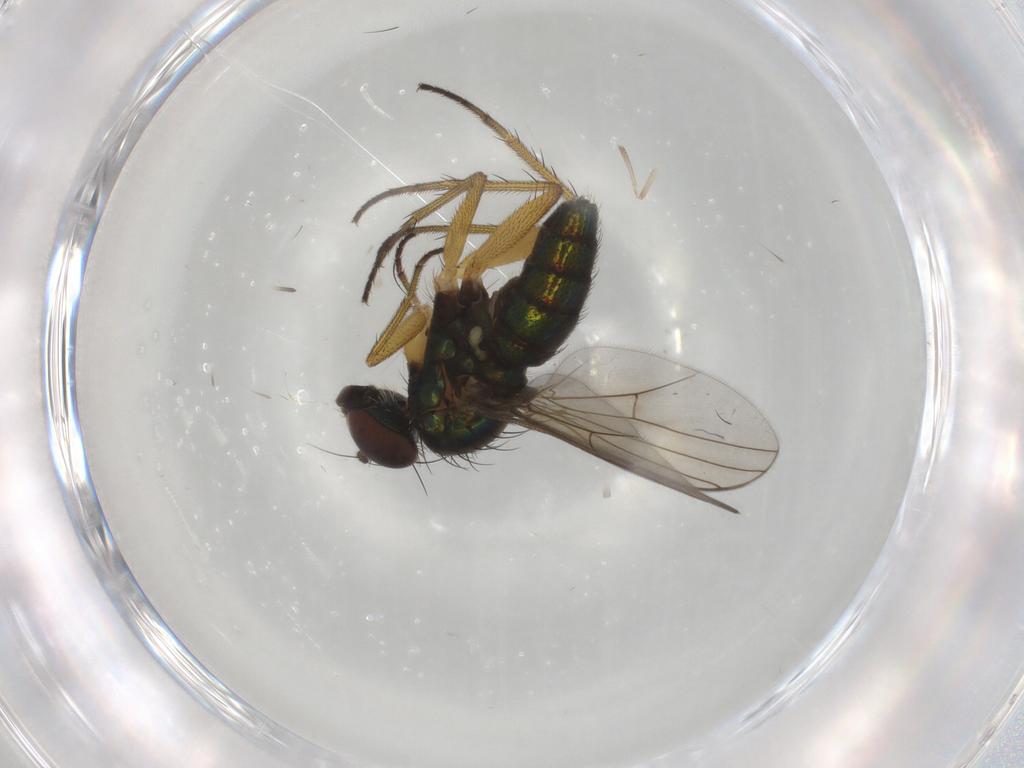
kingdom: Animalia
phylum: Arthropoda
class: Insecta
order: Diptera
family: Psychodidae
